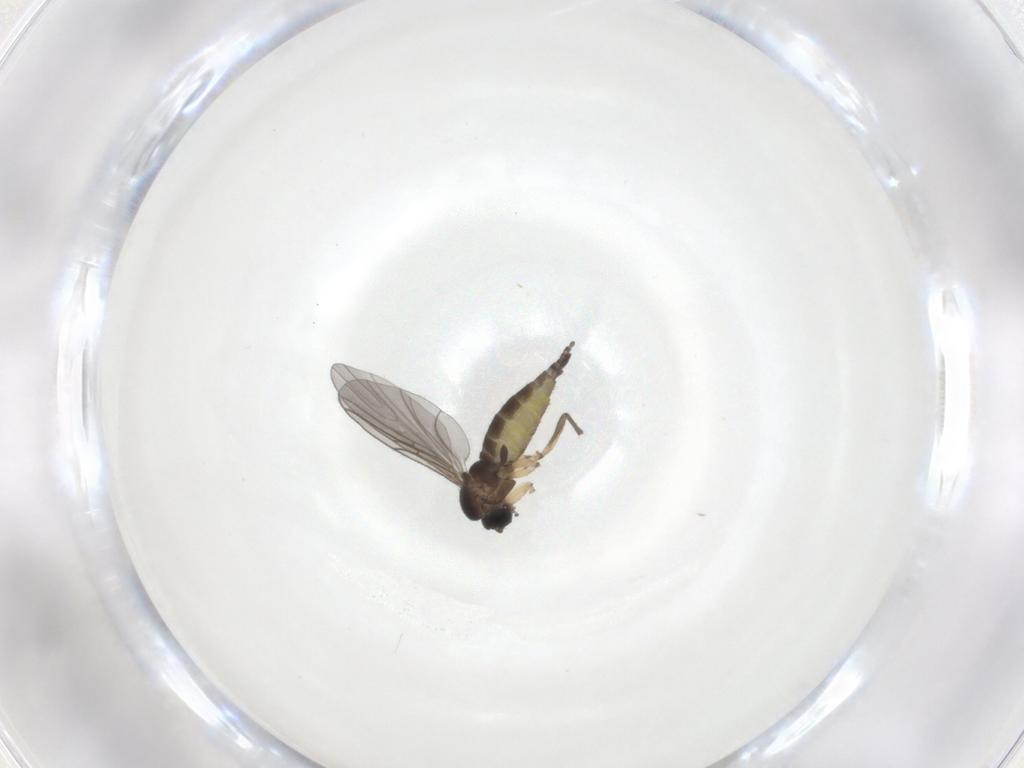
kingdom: Animalia
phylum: Arthropoda
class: Insecta
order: Diptera
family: Sciaridae
